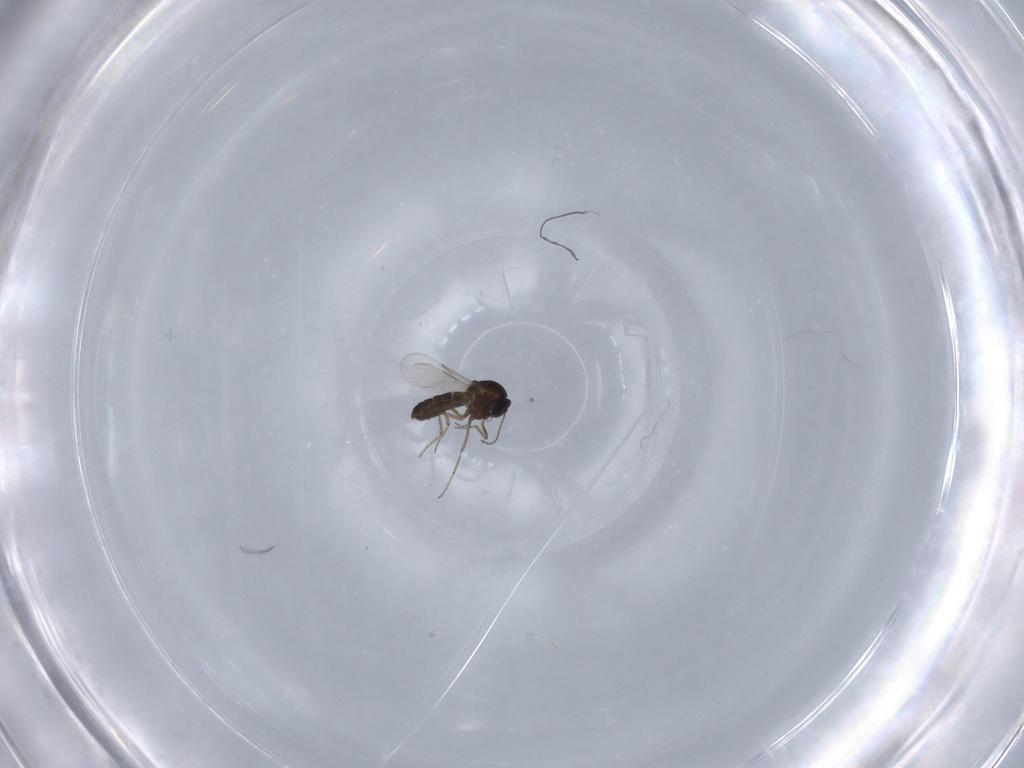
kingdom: Animalia
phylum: Arthropoda
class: Insecta
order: Diptera
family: Ceratopogonidae
